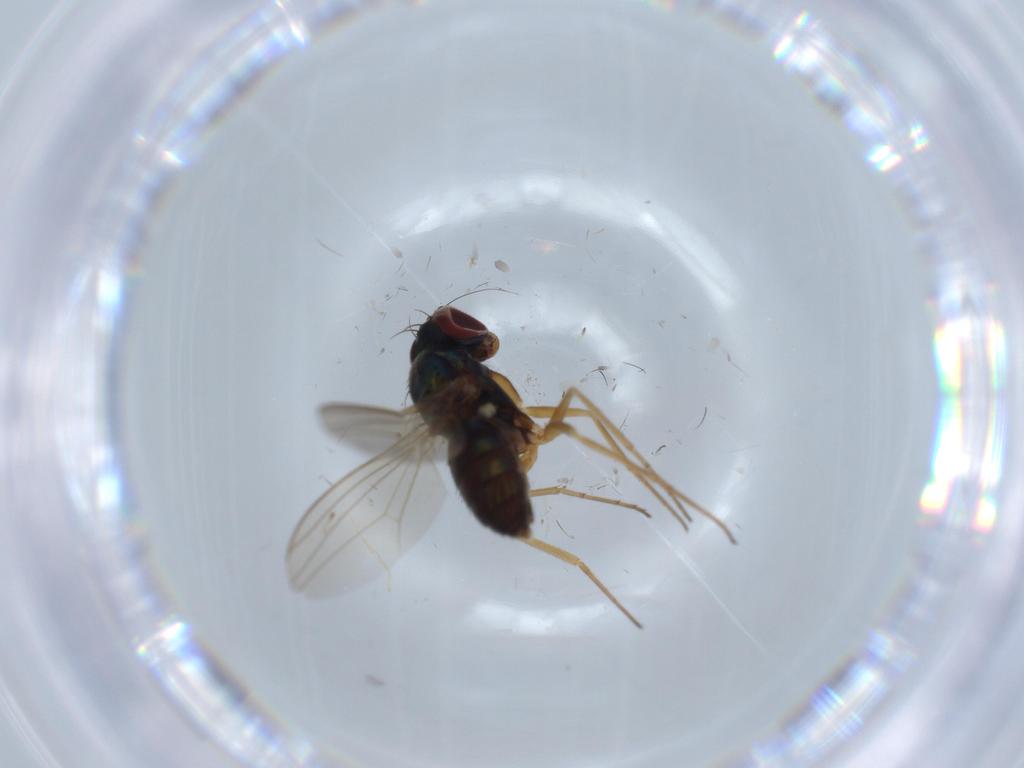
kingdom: Animalia
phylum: Arthropoda
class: Insecta
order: Diptera
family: Dolichopodidae
